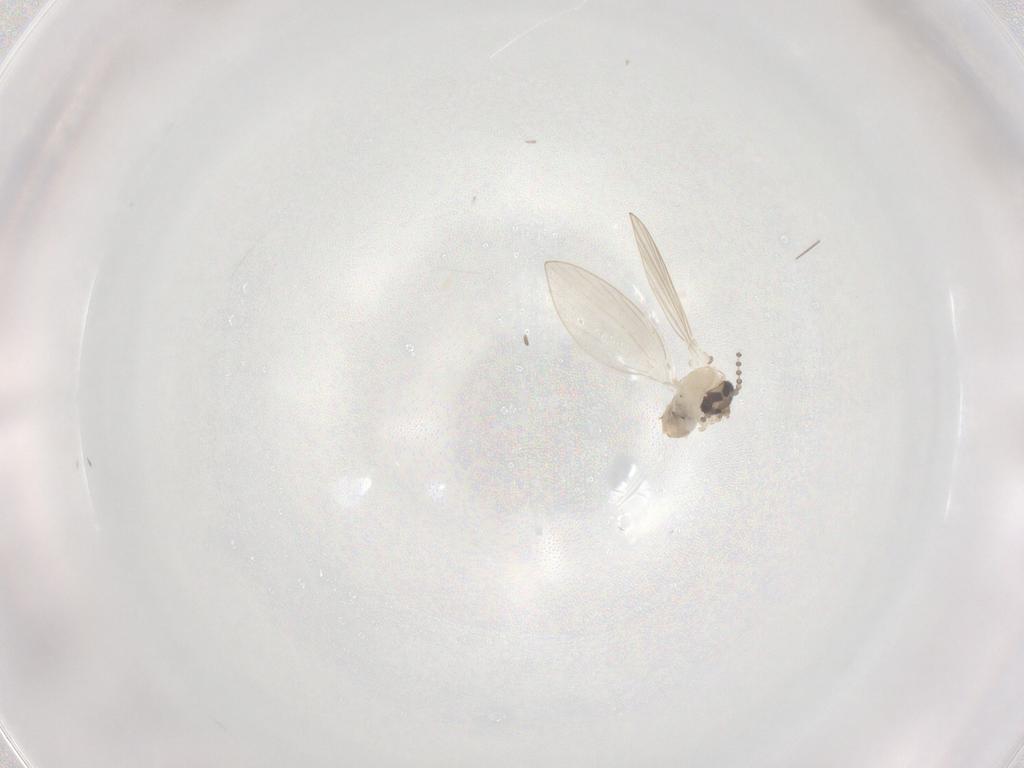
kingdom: Animalia
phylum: Arthropoda
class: Insecta
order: Diptera
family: Psychodidae
